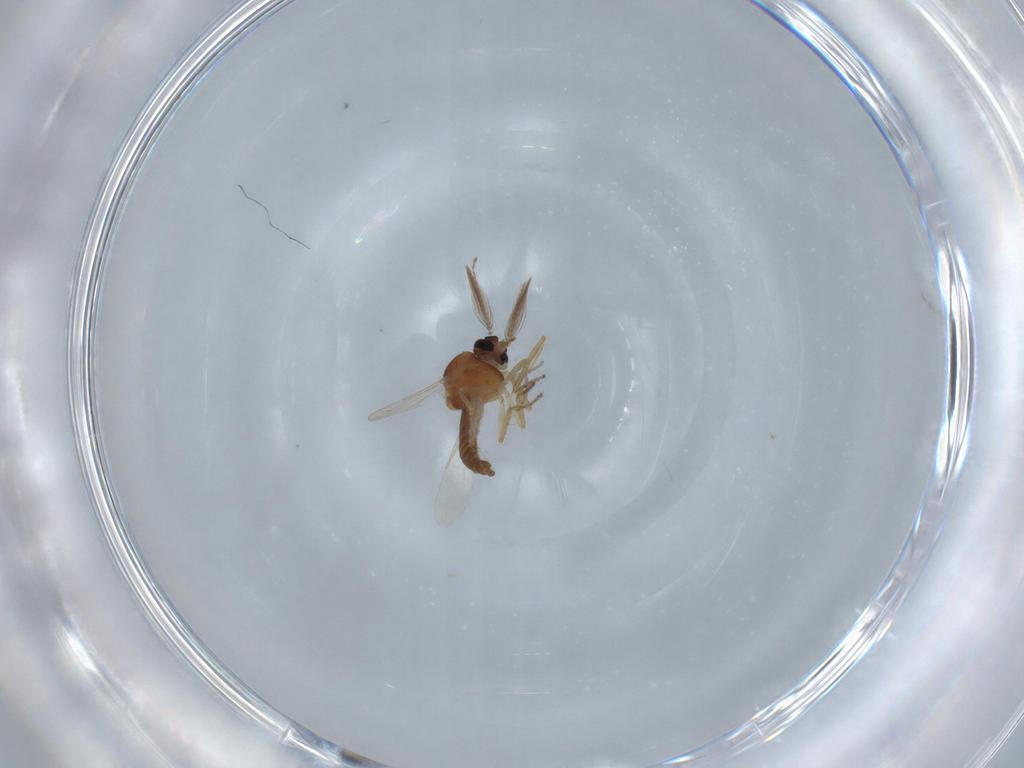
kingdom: Animalia
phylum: Arthropoda
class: Insecta
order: Diptera
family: Ceratopogonidae
